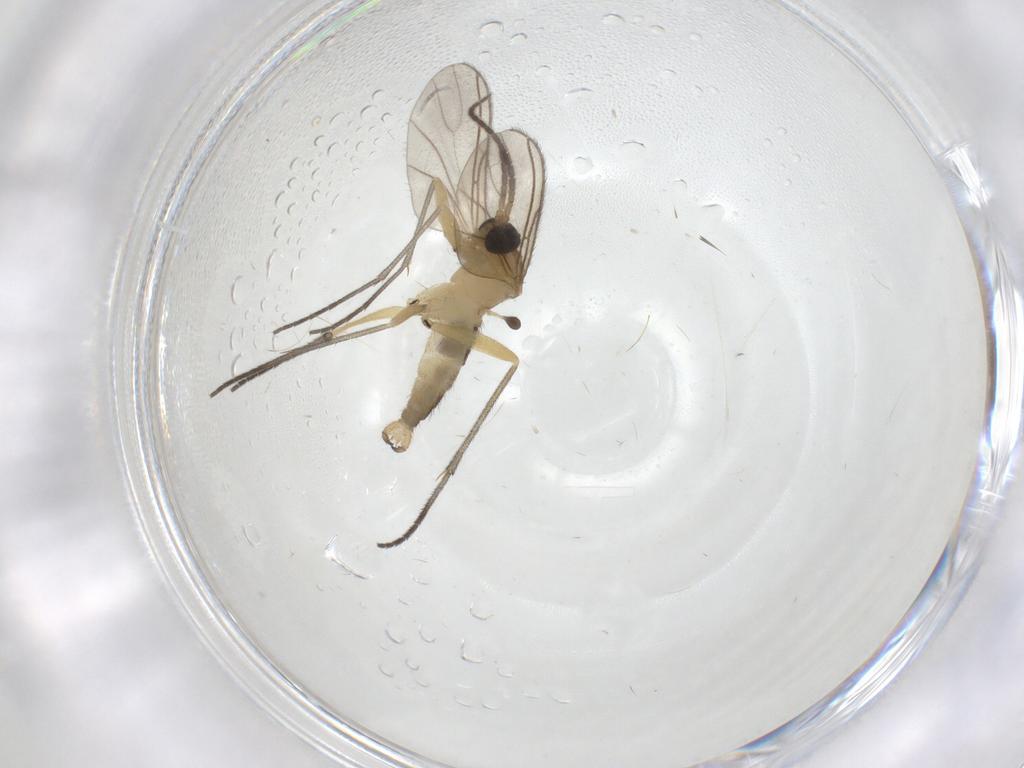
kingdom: Animalia
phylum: Arthropoda
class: Insecta
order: Diptera
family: Sciaridae
